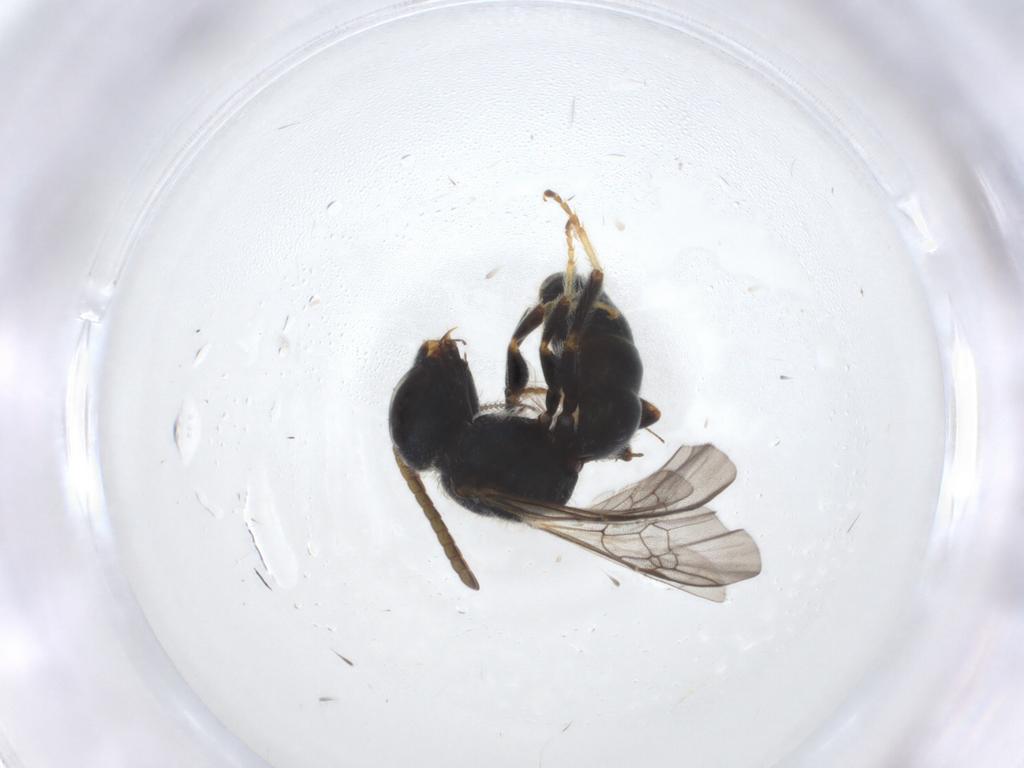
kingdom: Animalia
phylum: Arthropoda
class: Insecta
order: Hymenoptera
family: Halictidae
